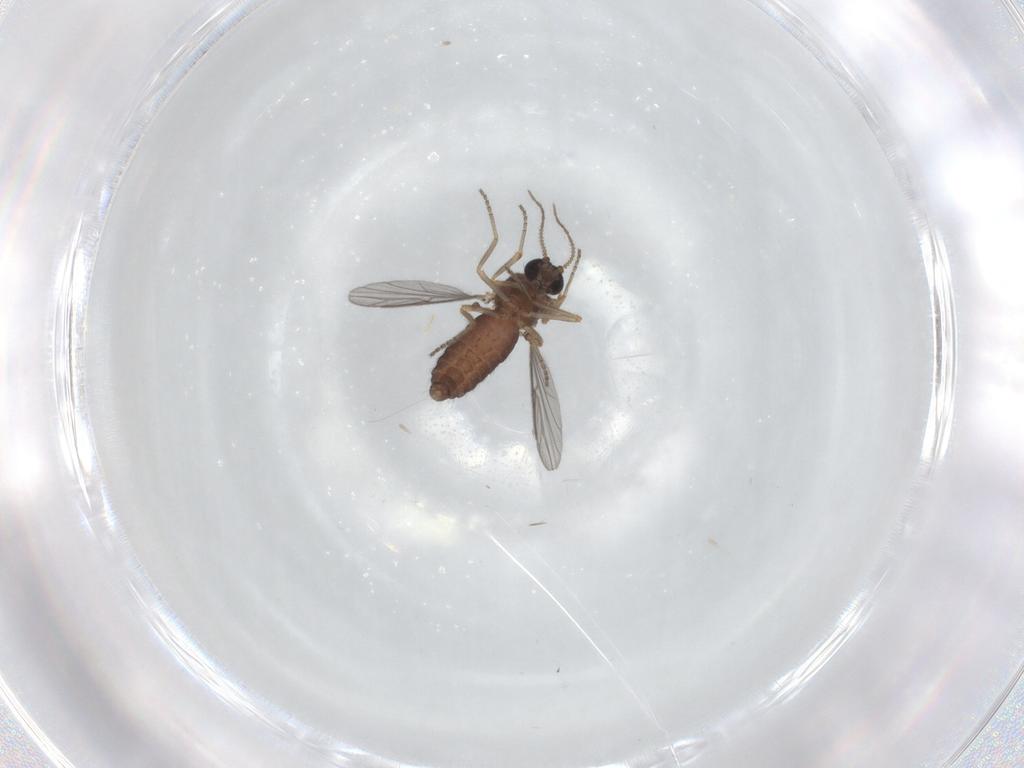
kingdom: Animalia
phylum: Arthropoda
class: Insecta
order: Diptera
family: Ceratopogonidae
